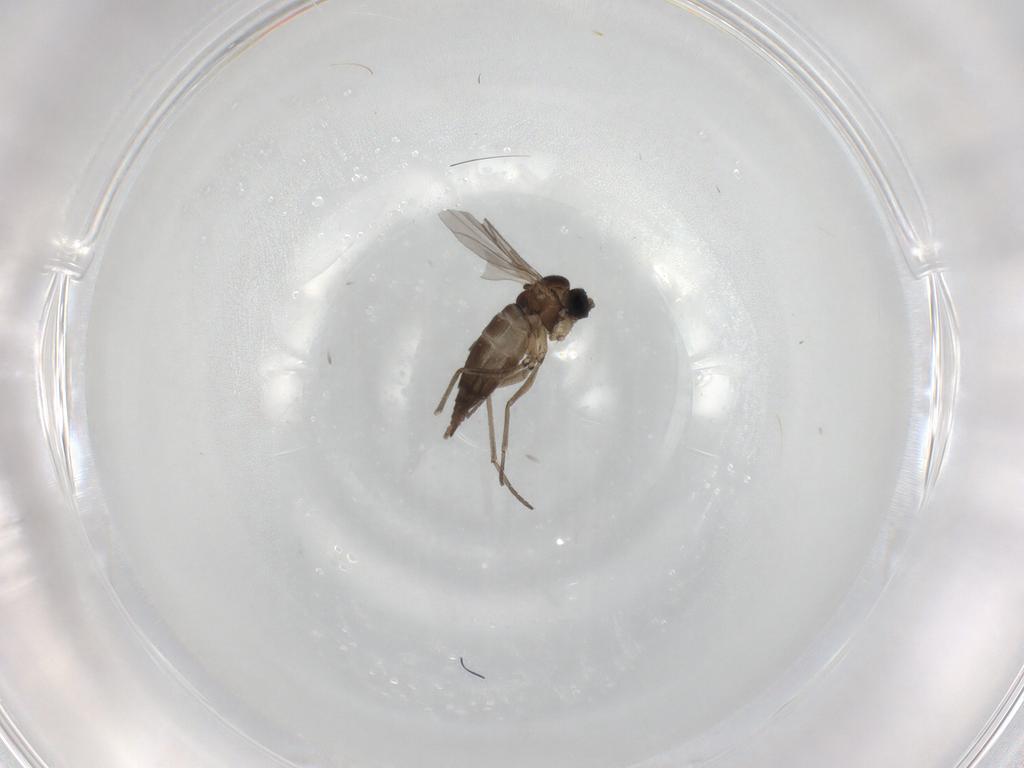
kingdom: Animalia
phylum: Arthropoda
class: Insecta
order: Diptera
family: Sciaridae
